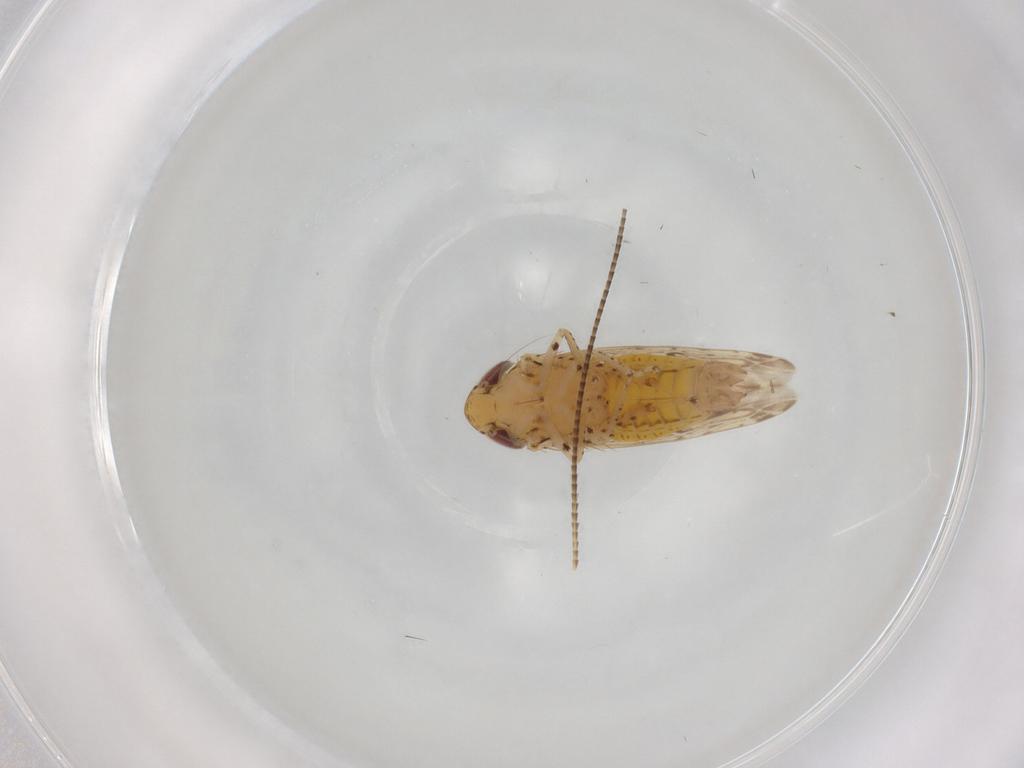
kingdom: Animalia
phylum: Arthropoda
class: Insecta
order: Hemiptera
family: Cicadellidae
